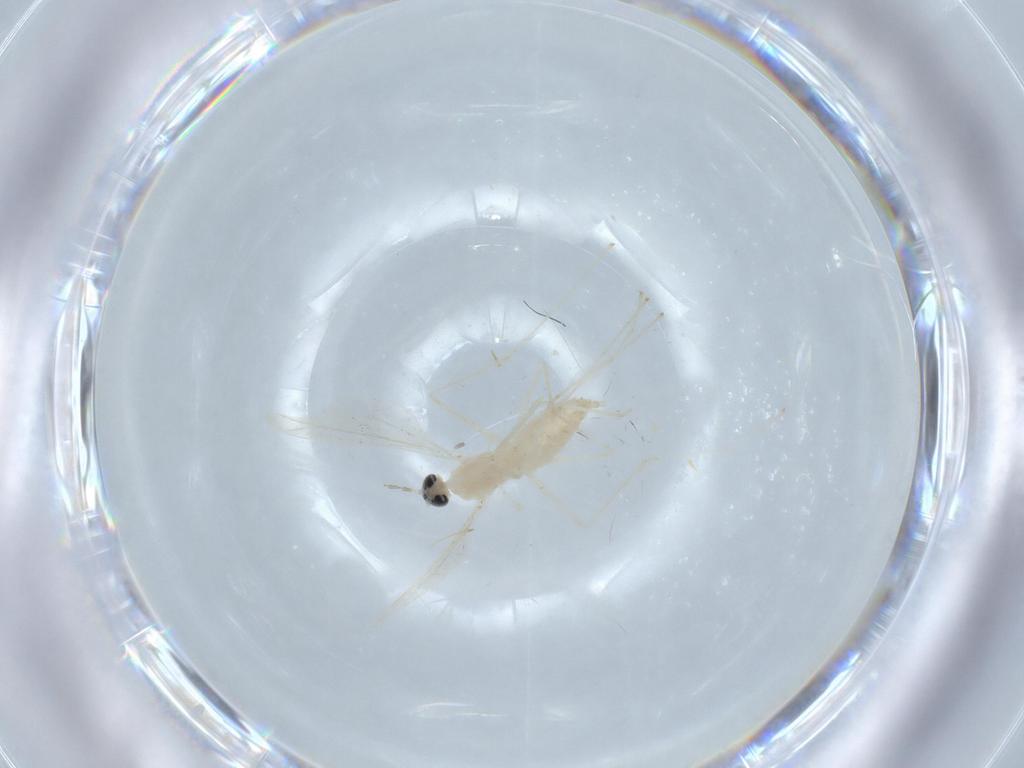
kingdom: Animalia
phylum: Arthropoda
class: Insecta
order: Diptera
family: Cecidomyiidae
